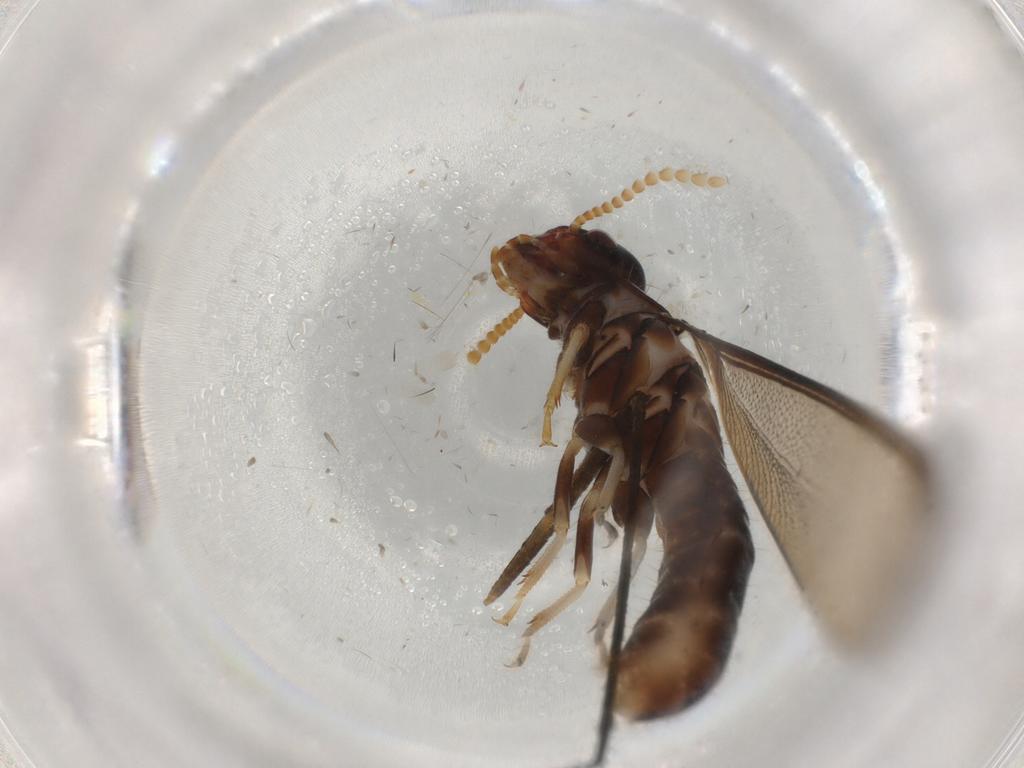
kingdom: Animalia
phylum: Arthropoda
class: Insecta
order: Blattodea
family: Kalotermitidae
